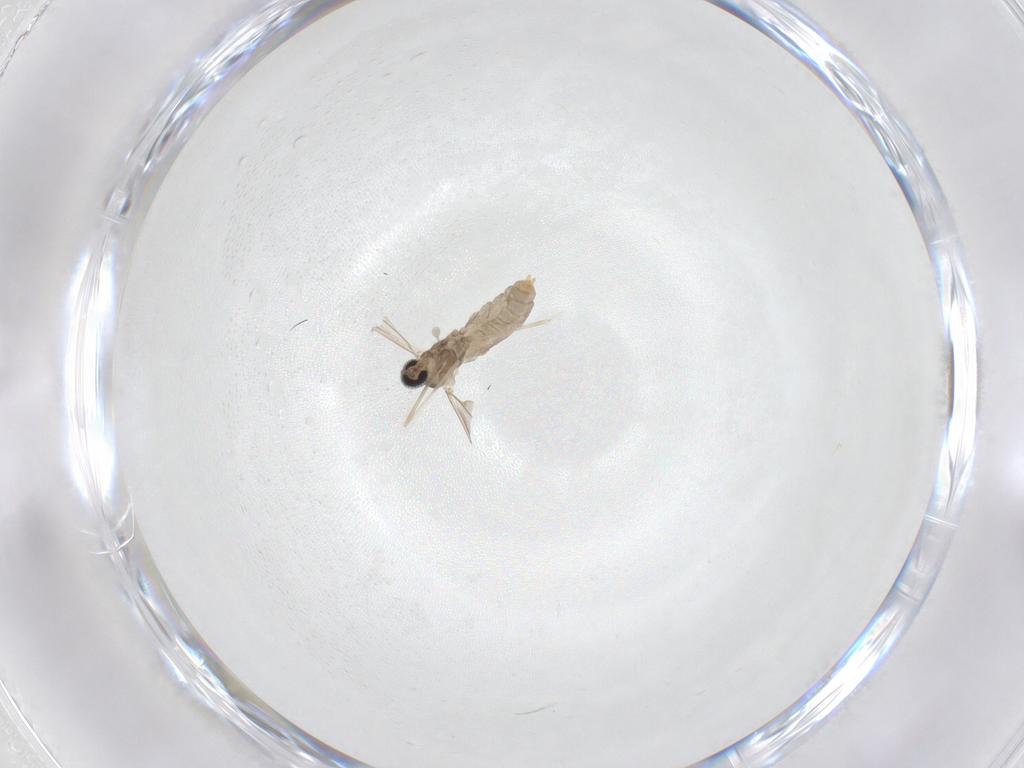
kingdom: Animalia
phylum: Arthropoda
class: Insecta
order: Diptera
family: Cecidomyiidae
